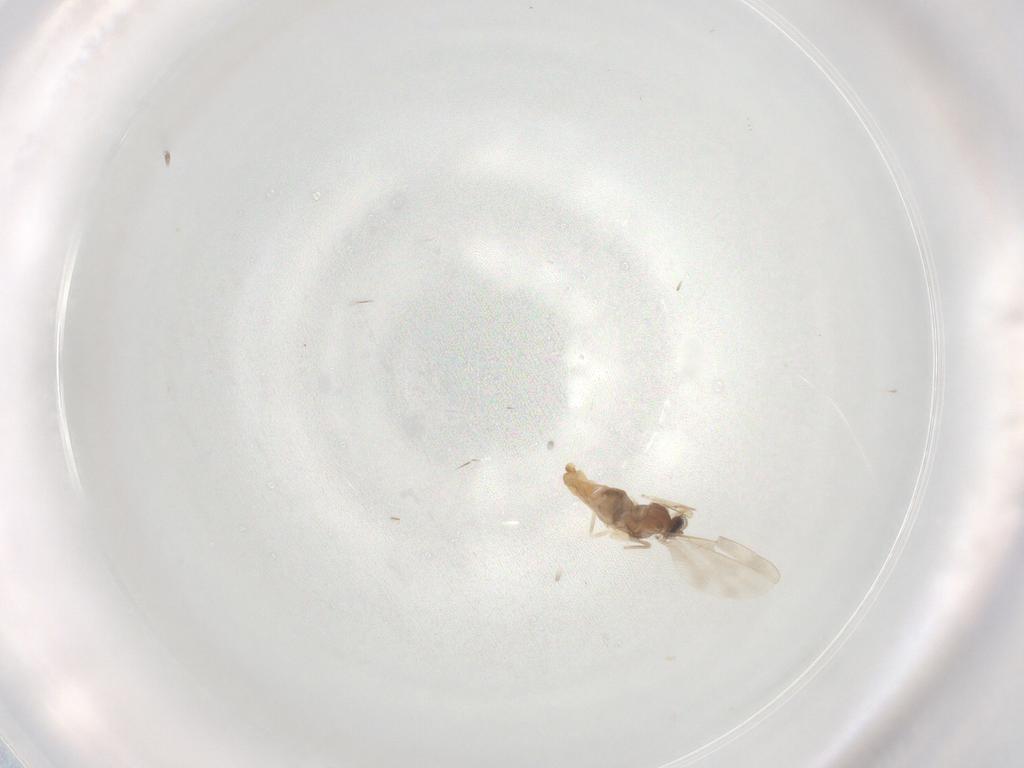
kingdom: Animalia
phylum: Arthropoda
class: Insecta
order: Diptera
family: Cecidomyiidae
